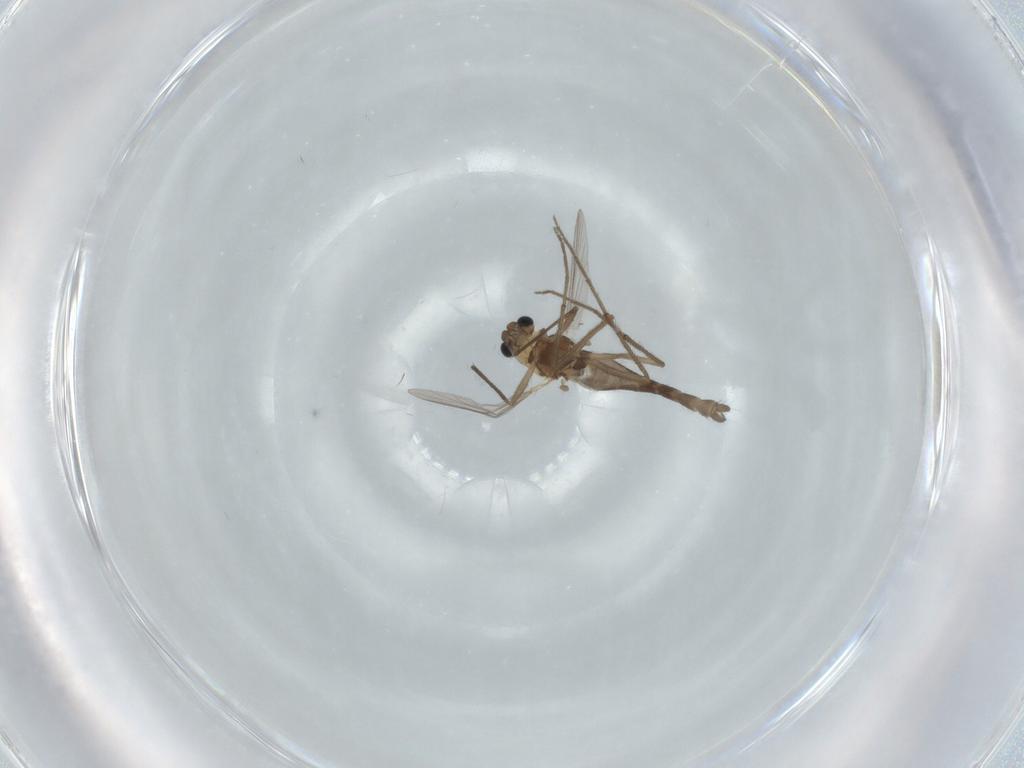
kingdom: Animalia
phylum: Arthropoda
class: Insecta
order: Diptera
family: Chironomidae
